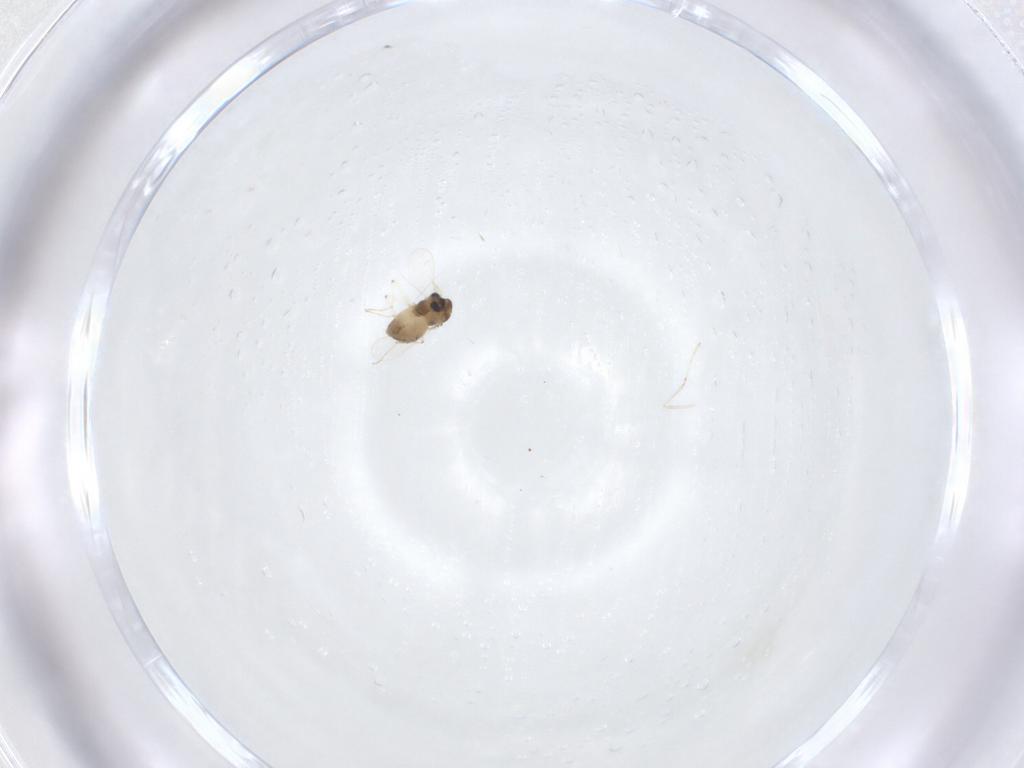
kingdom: Animalia
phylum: Arthropoda
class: Insecta
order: Diptera
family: Chironomidae
